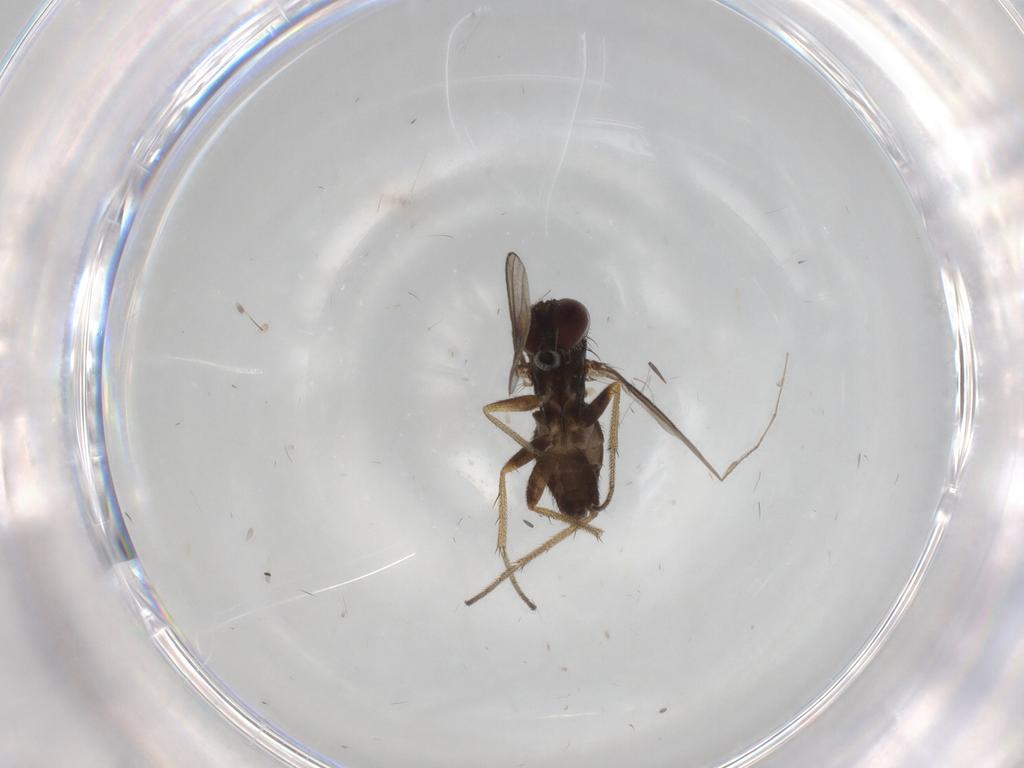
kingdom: Animalia
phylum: Arthropoda
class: Insecta
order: Diptera
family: Chironomidae
